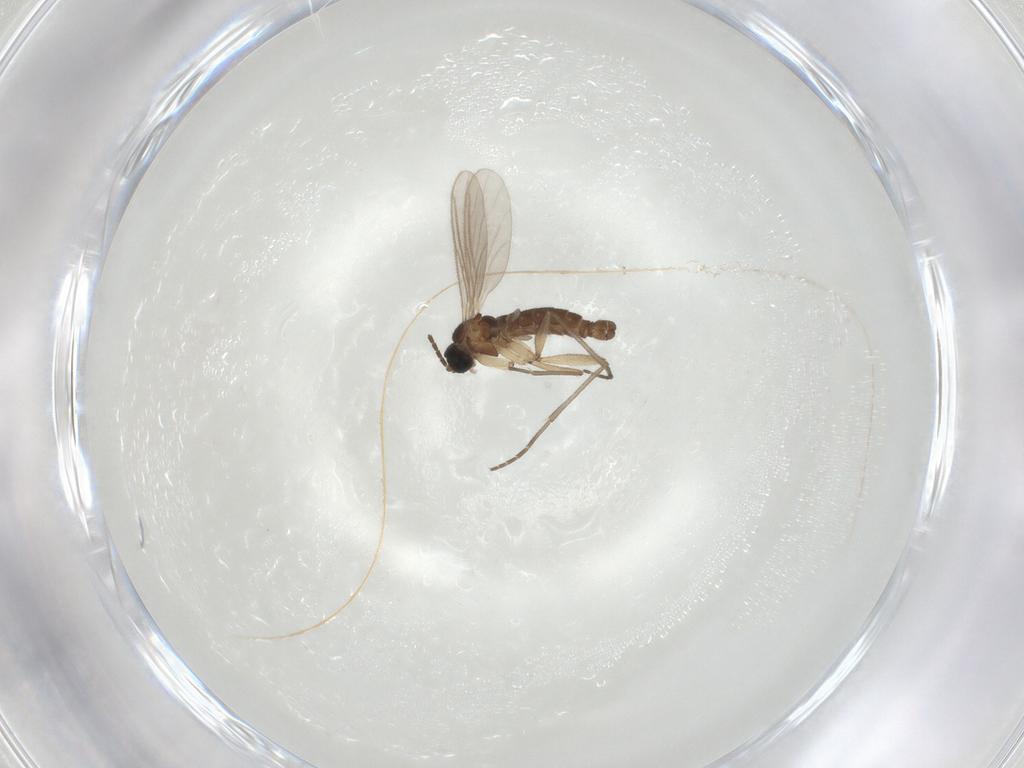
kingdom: Animalia
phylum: Arthropoda
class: Insecta
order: Diptera
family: Sciaridae
